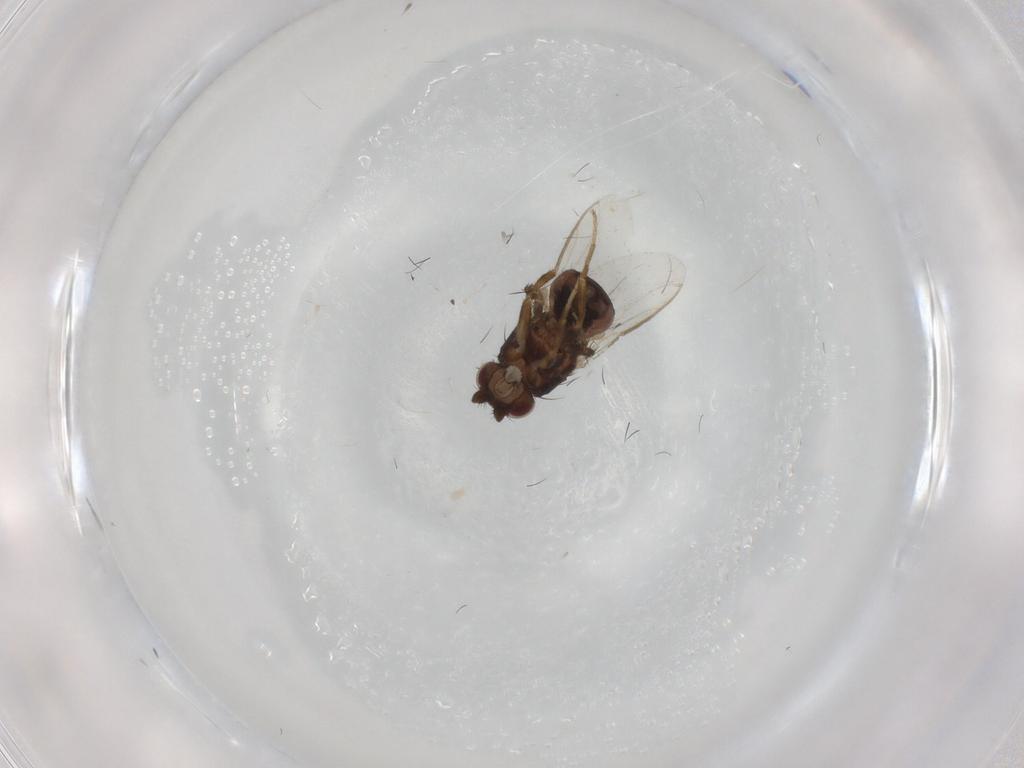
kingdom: Animalia
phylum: Arthropoda
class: Insecta
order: Diptera
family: Sphaeroceridae
